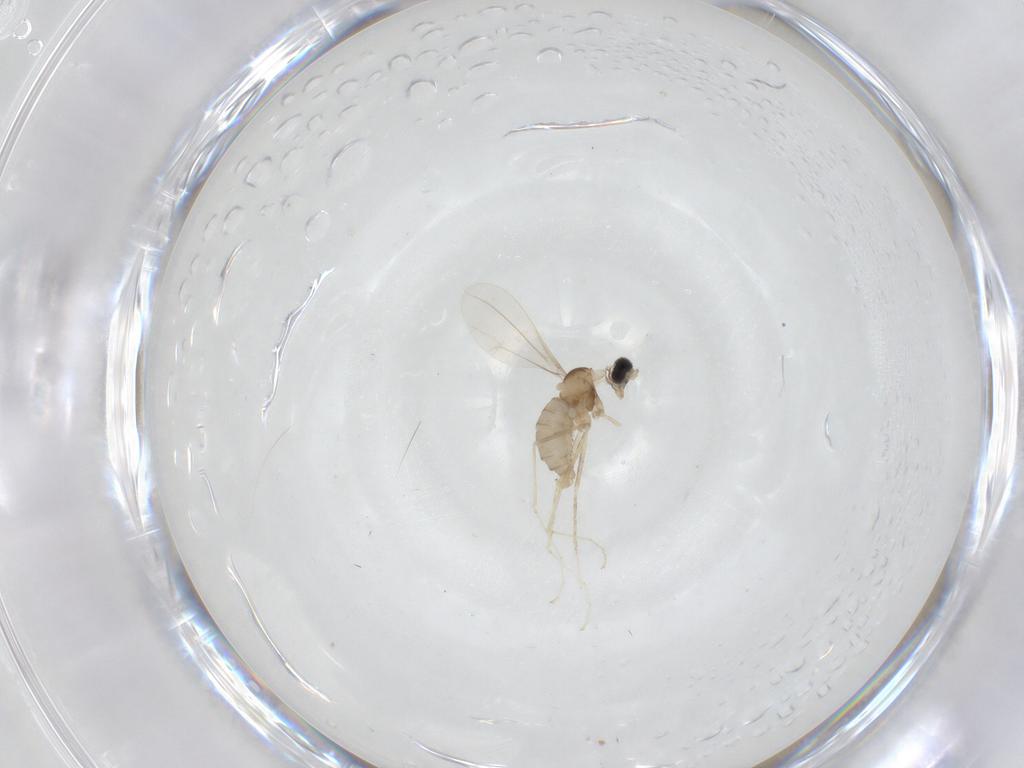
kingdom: Animalia
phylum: Arthropoda
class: Insecta
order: Diptera
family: Cecidomyiidae
